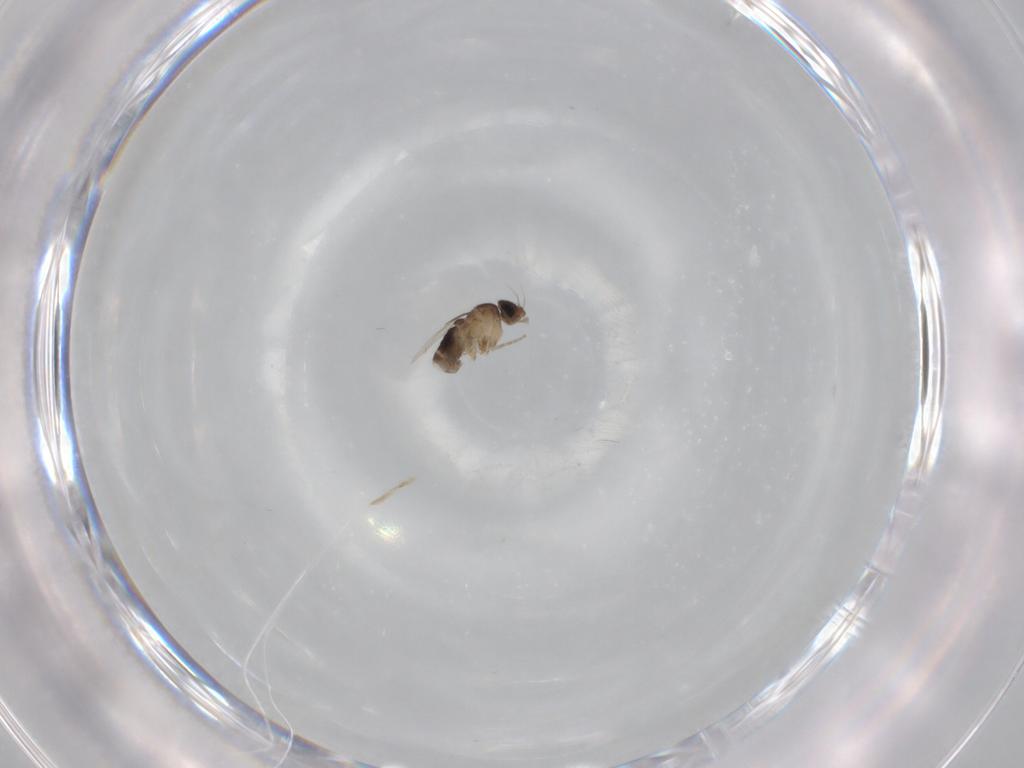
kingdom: Animalia
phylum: Arthropoda
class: Insecta
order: Diptera
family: Phoridae
